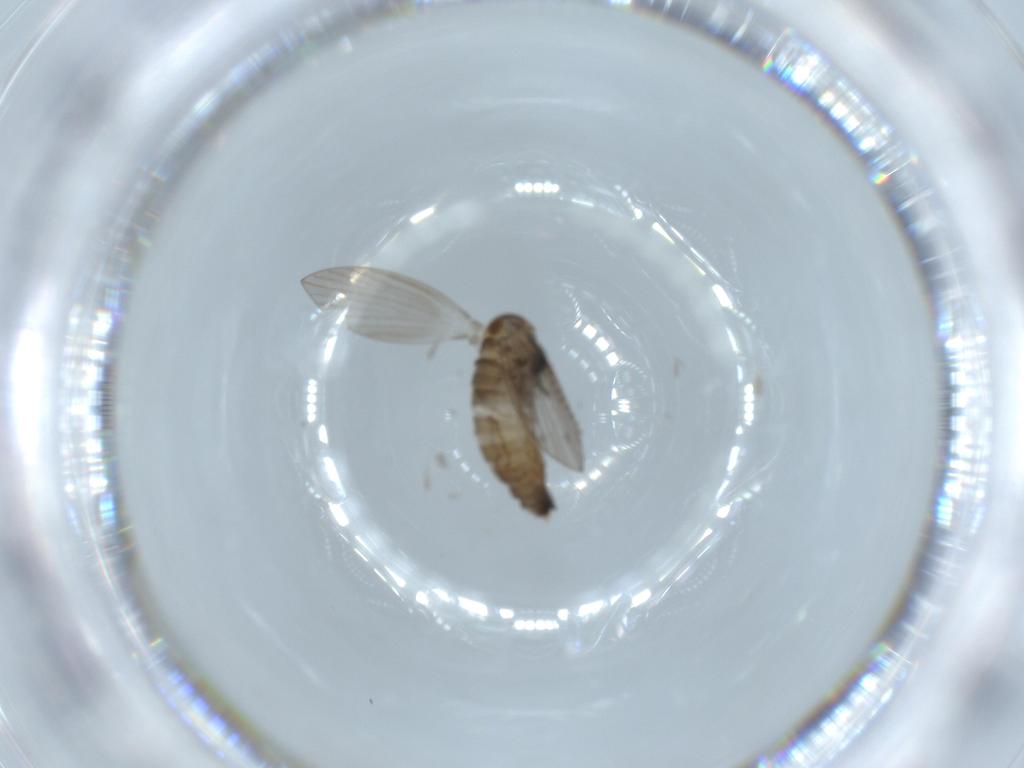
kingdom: Animalia
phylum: Arthropoda
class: Insecta
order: Diptera
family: Psychodidae
